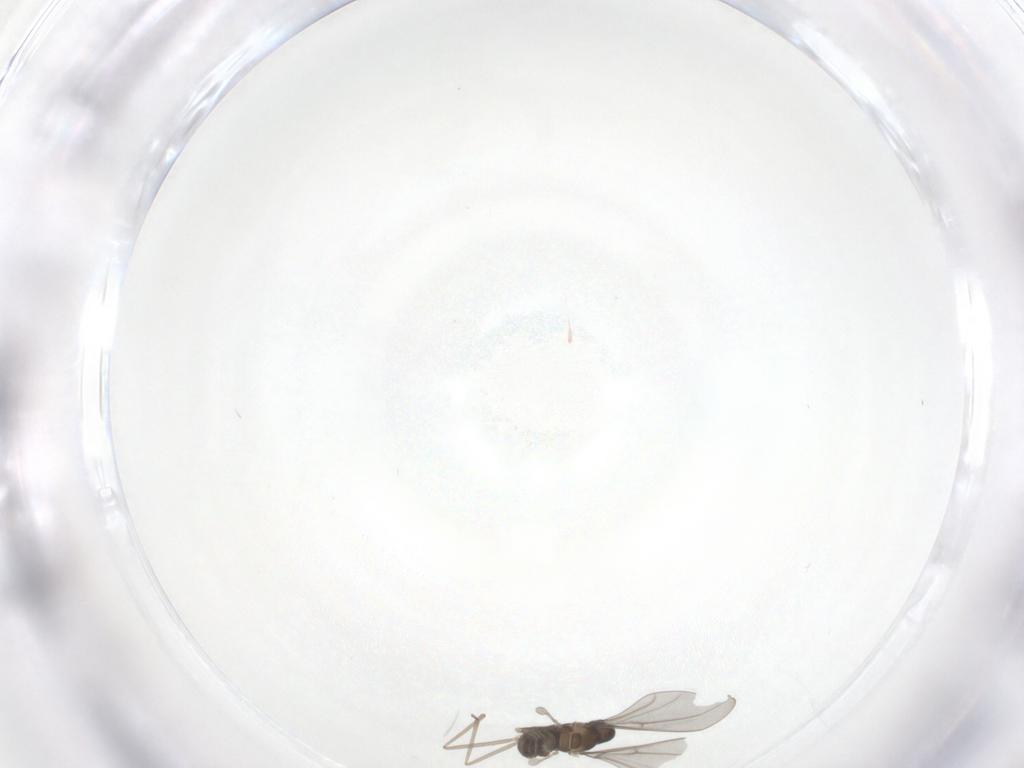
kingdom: Animalia
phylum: Arthropoda
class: Insecta
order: Diptera
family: Cecidomyiidae
